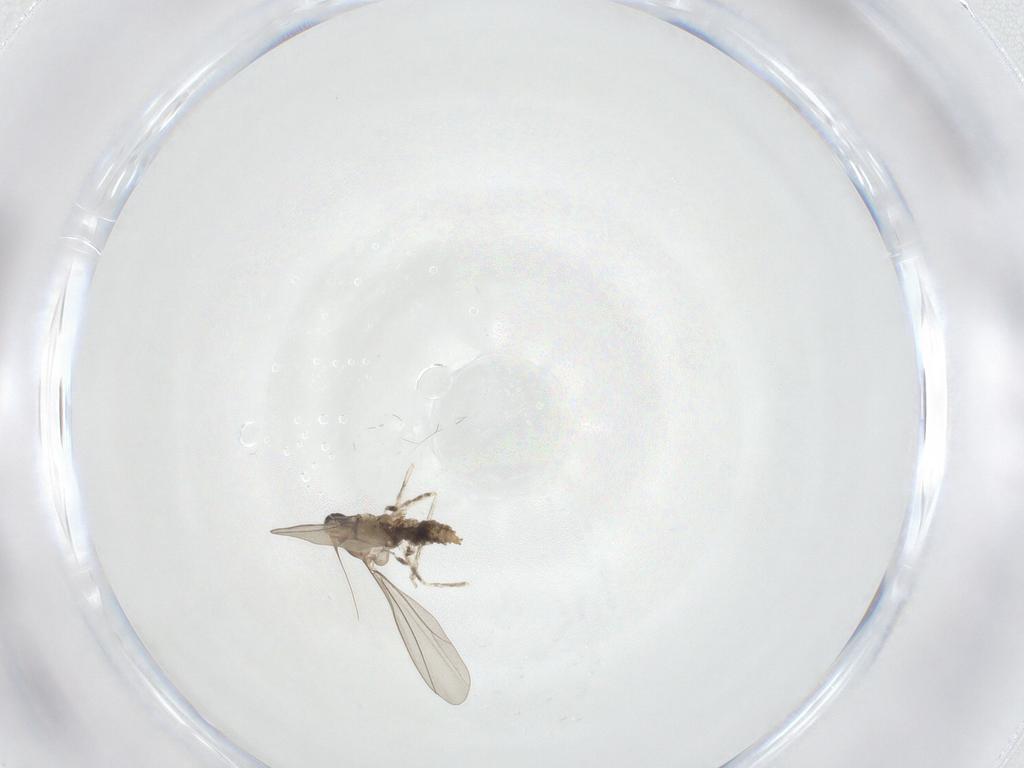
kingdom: Animalia
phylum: Arthropoda
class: Insecta
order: Diptera
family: Cecidomyiidae
